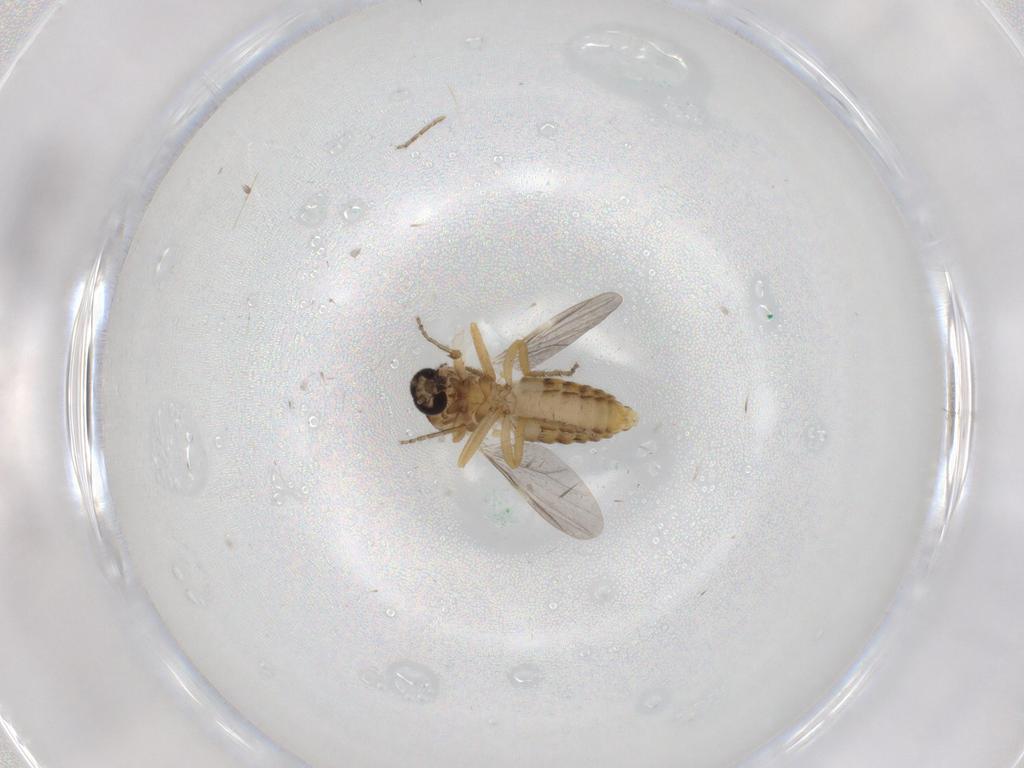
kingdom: Animalia
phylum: Arthropoda
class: Insecta
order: Diptera
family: Ceratopogonidae
